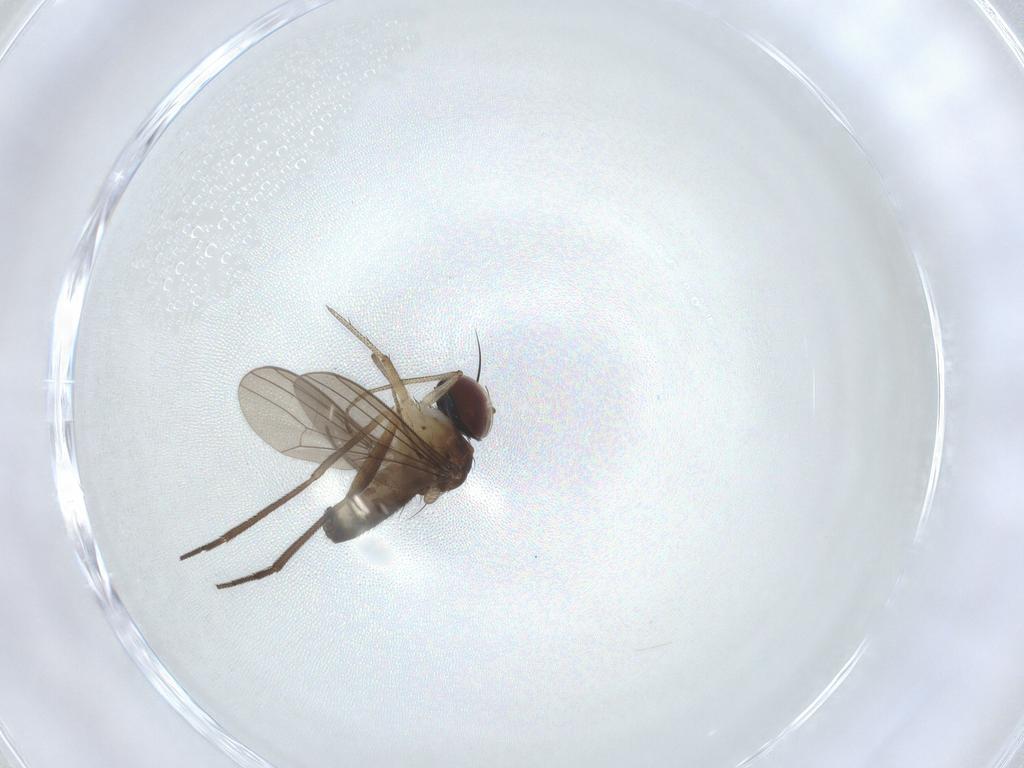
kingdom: Animalia
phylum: Arthropoda
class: Insecta
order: Diptera
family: Dolichopodidae
